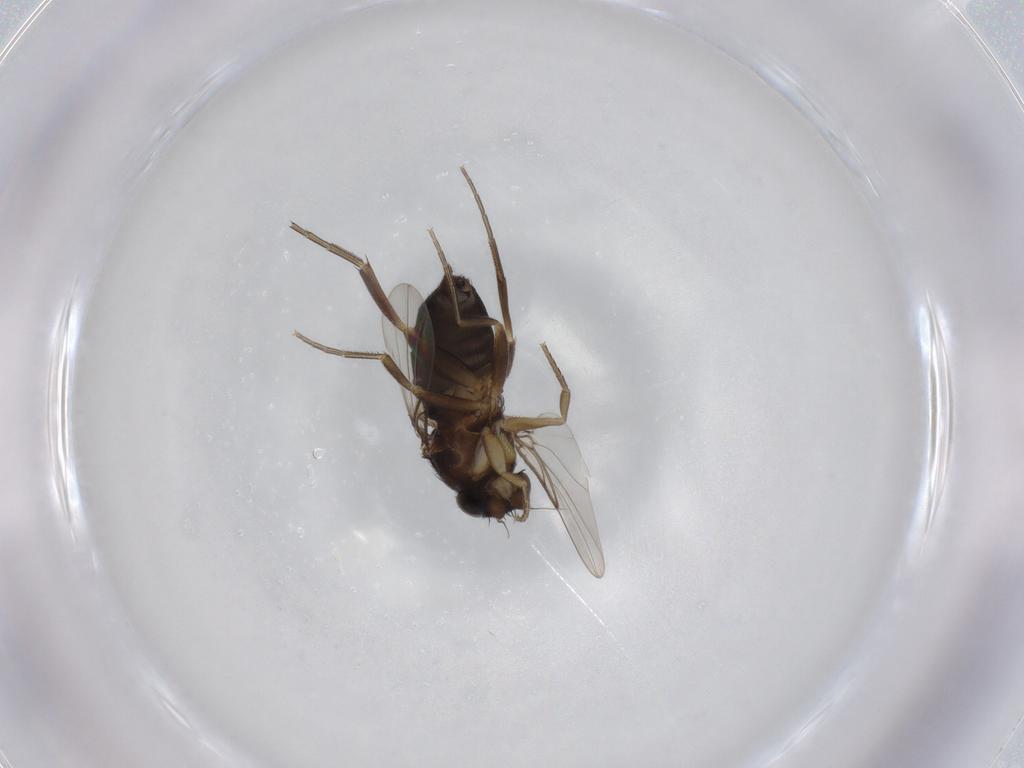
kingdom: Animalia
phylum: Arthropoda
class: Insecta
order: Diptera
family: Phoridae
